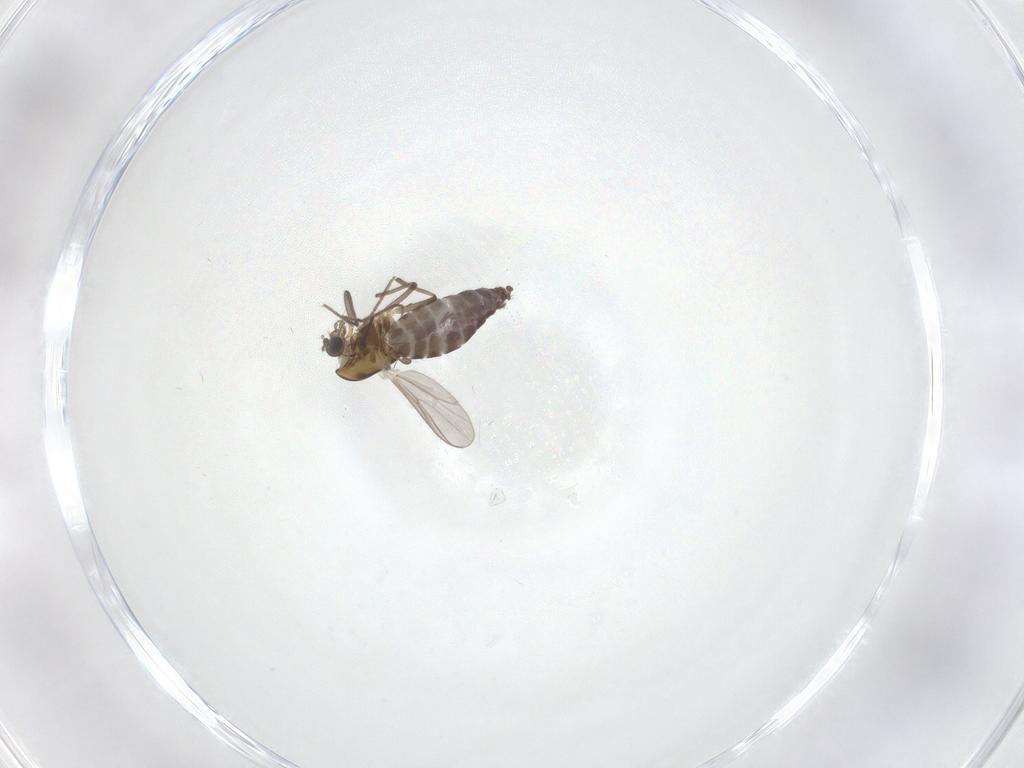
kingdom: Animalia
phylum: Arthropoda
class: Insecta
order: Diptera
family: Chironomidae
